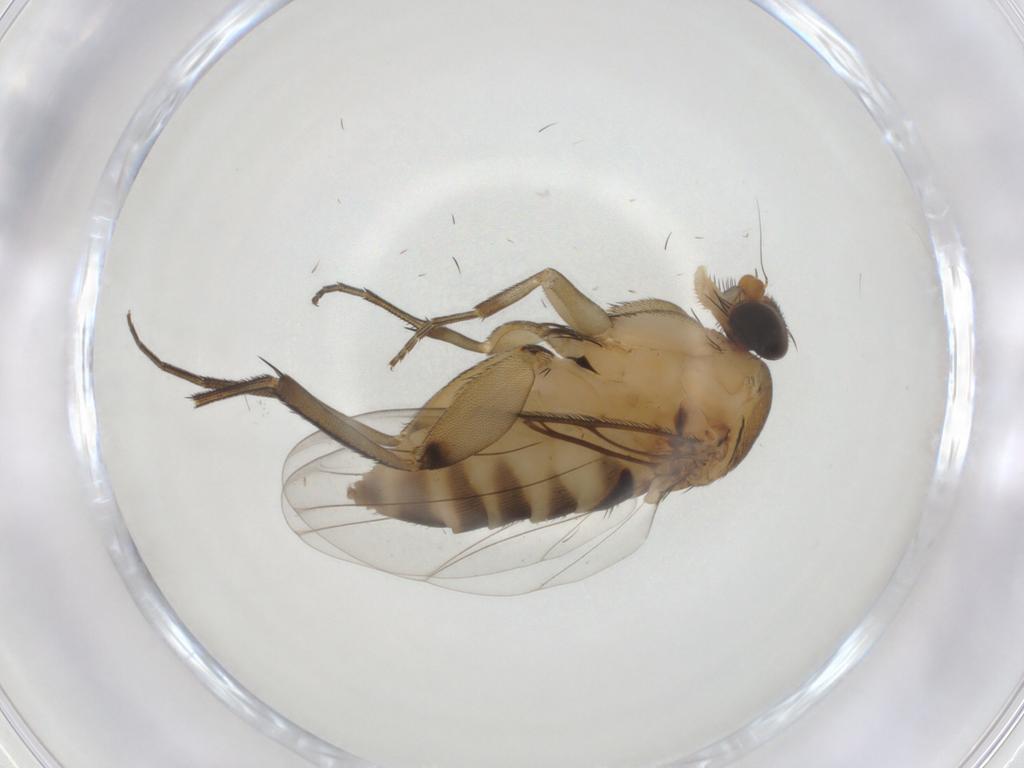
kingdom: Animalia
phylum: Arthropoda
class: Insecta
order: Diptera
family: Phoridae
